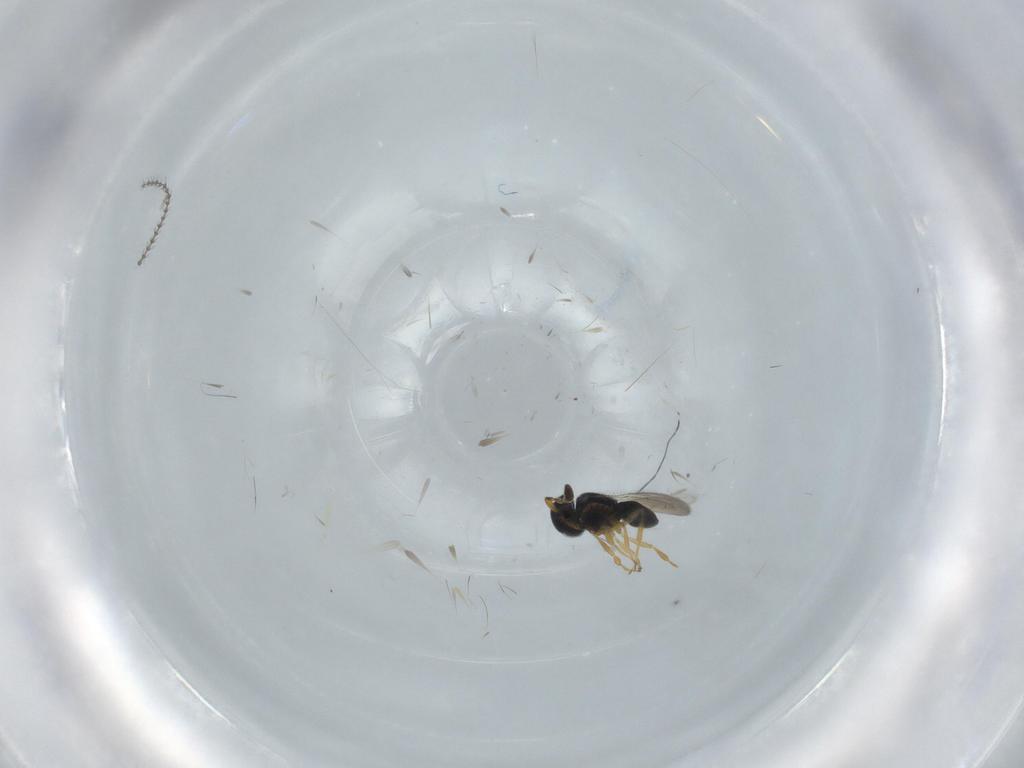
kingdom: Animalia
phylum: Arthropoda
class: Insecta
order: Hymenoptera
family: Scelionidae
